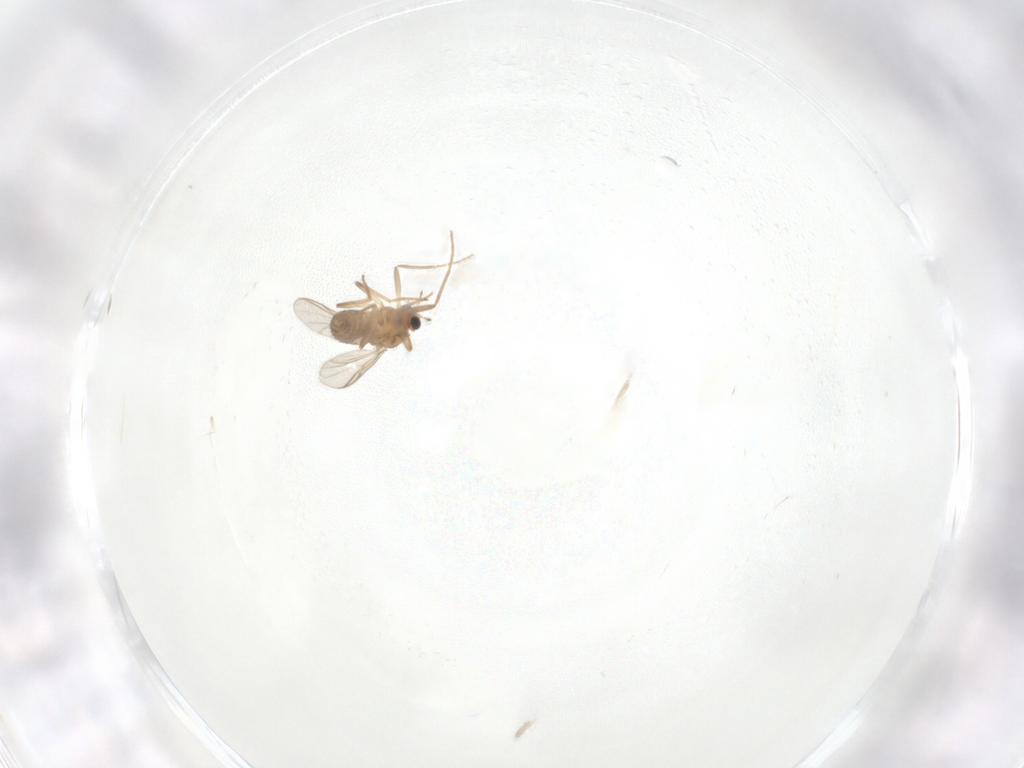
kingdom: Animalia
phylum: Arthropoda
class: Insecta
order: Diptera
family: Chironomidae
